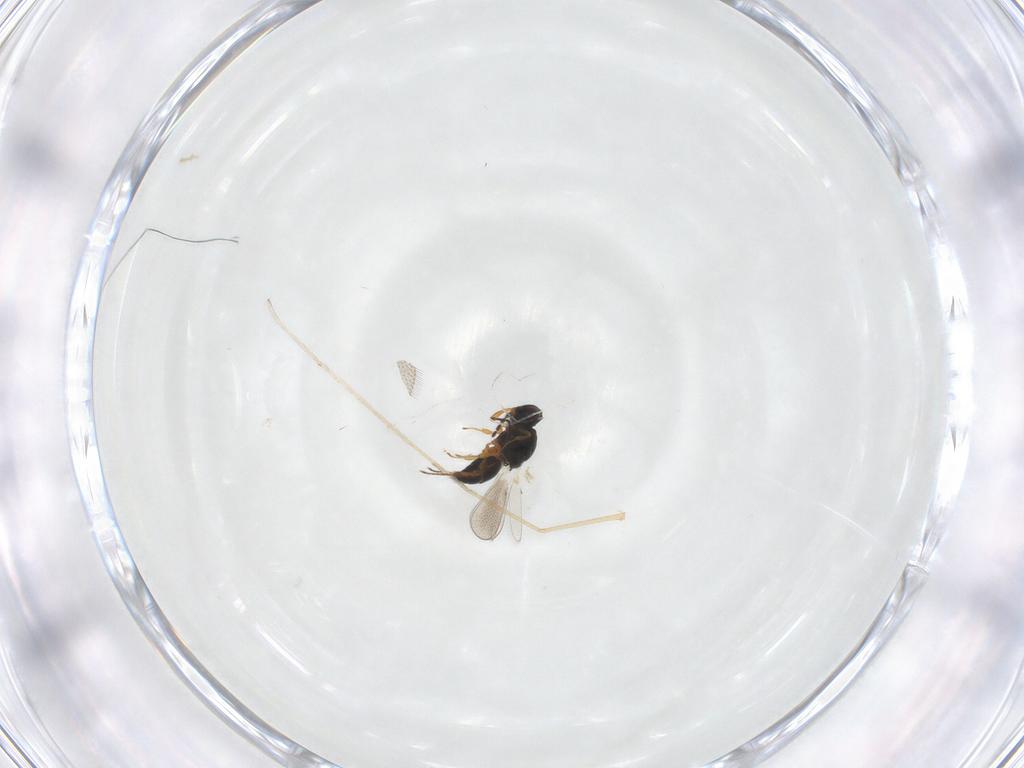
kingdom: Animalia
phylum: Arthropoda
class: Insecta
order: Hymenoptera
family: Platygastridae
